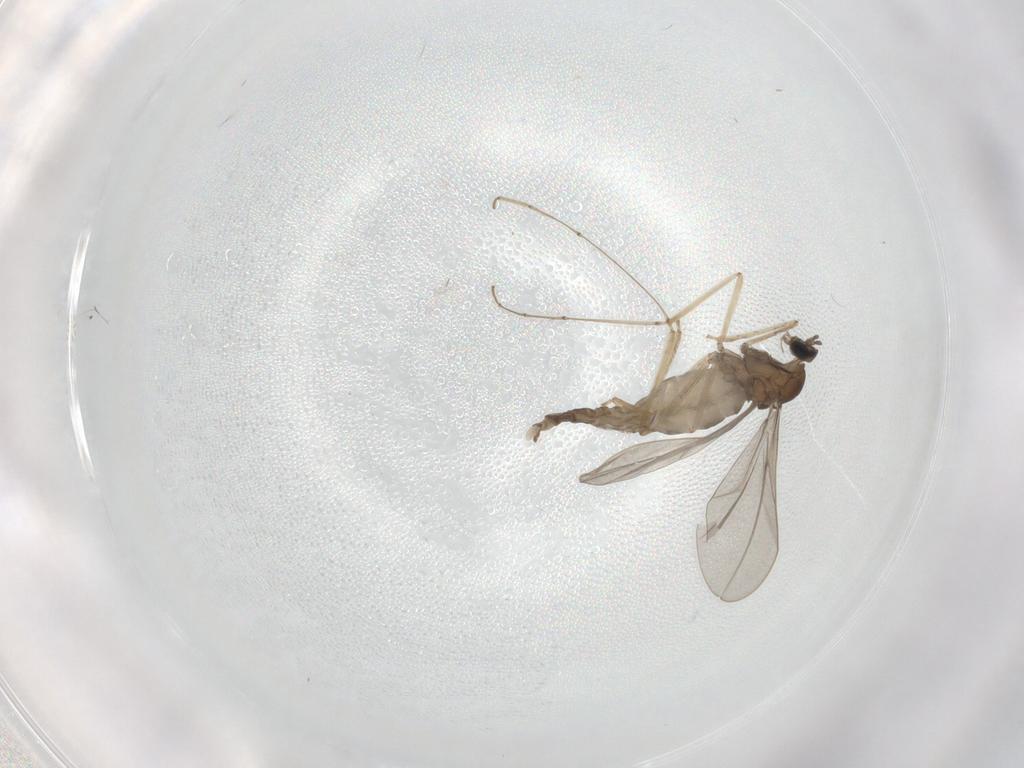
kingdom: Animalia
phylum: Arthropoda
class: Insecta
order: Diptera
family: Cecidomyiidae
